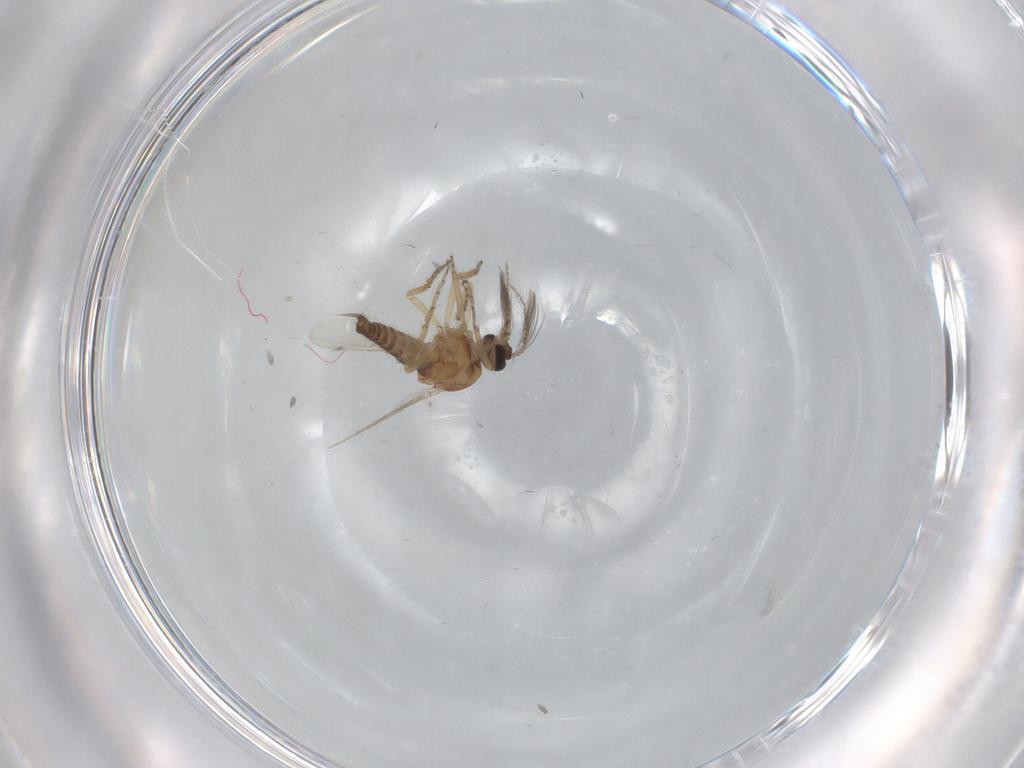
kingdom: Animalia
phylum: Arthropoda
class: Insecta
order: Diptera
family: Ceratopogonidae
